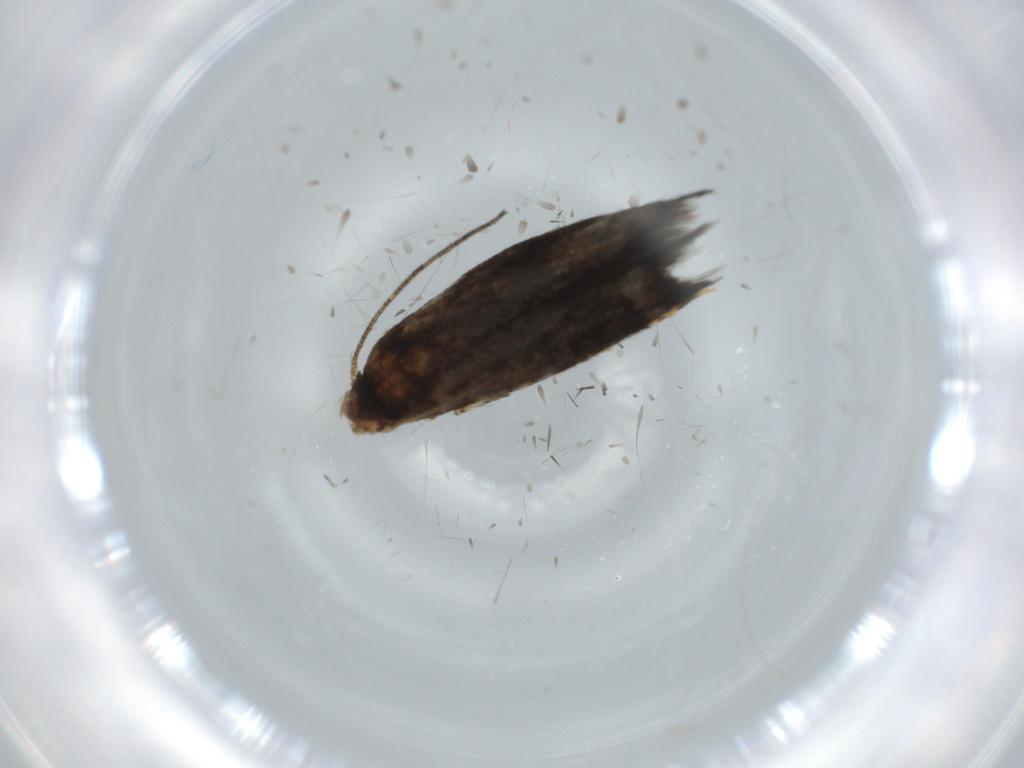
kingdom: Animalia
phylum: Arthropoda
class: Insecta
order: Lepidoptera
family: Momphidae
